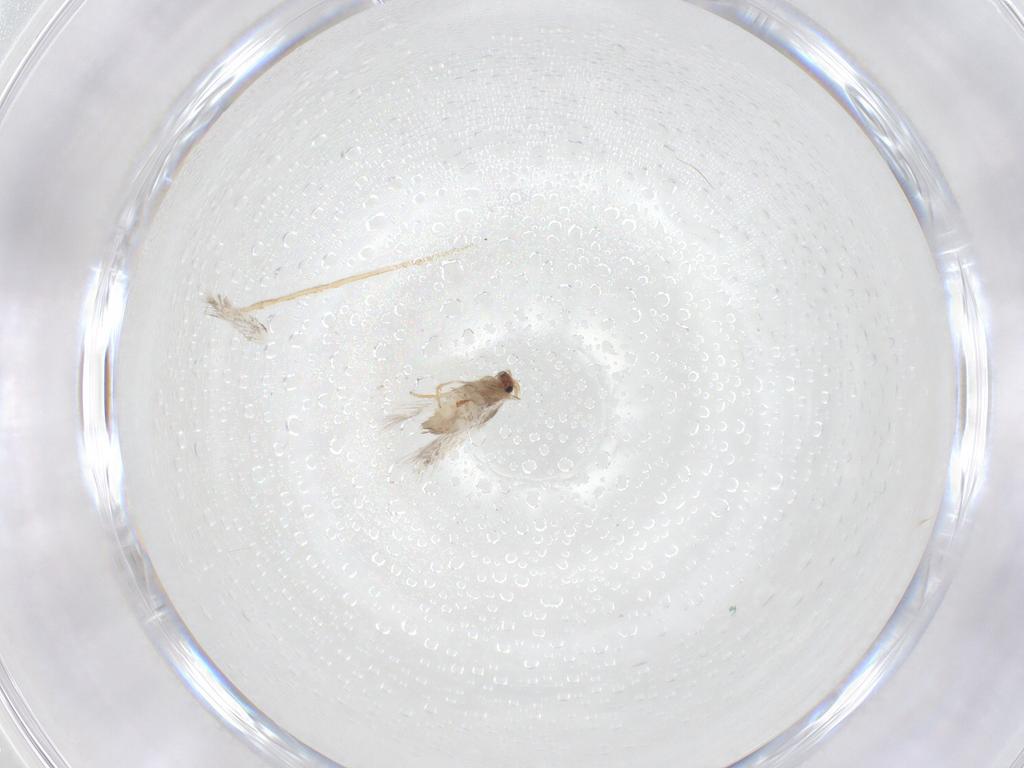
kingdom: Animalia
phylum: Arthropoda
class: Insecta
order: Lepidoptera
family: Nepticulidae
